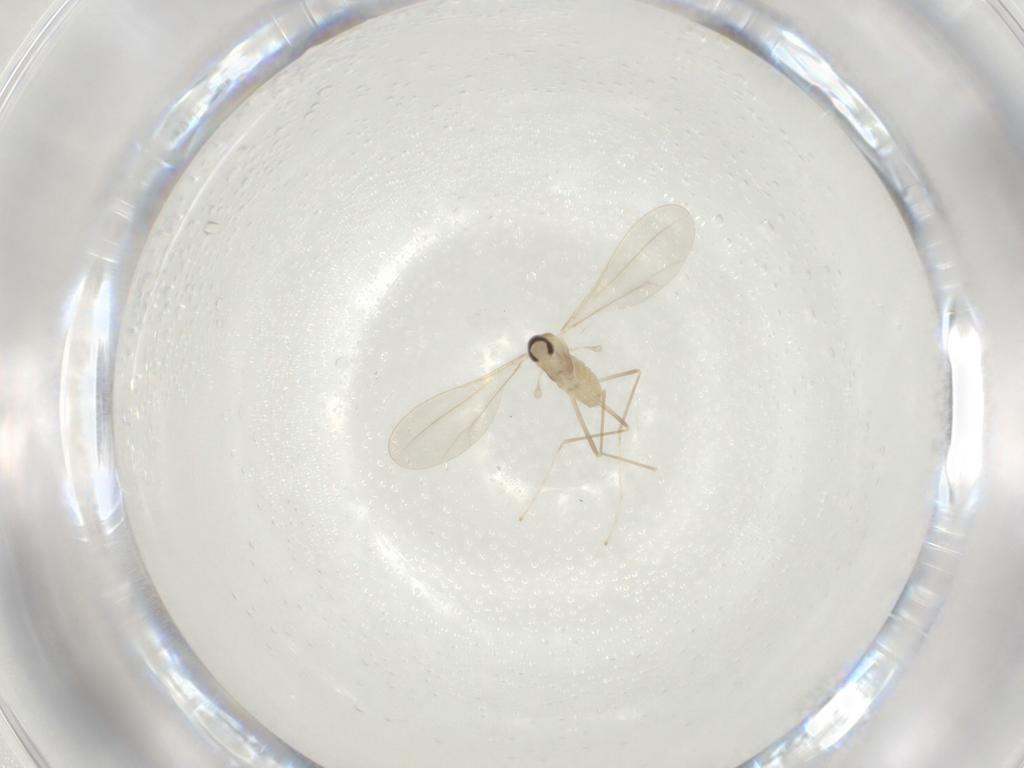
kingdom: Animalia
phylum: Arthropoda
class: Insecta
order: Diptera
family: Cecidomyiidae
